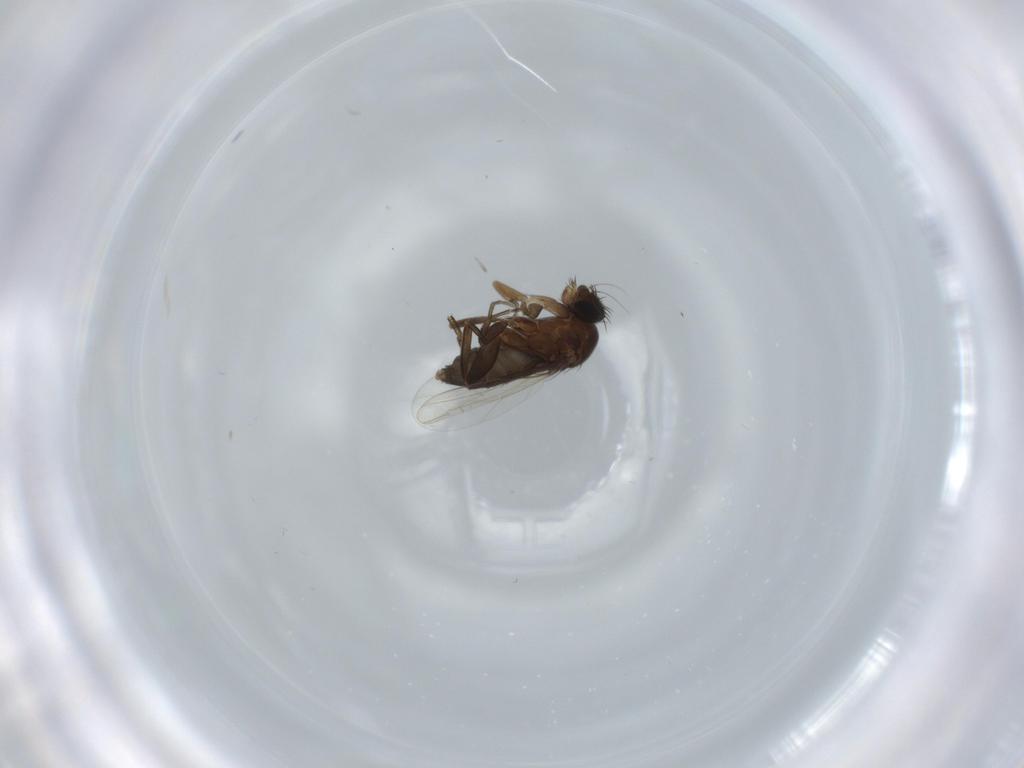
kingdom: Animalia
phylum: Arthropoda
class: Insecta
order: Diptera
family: Phoridae
